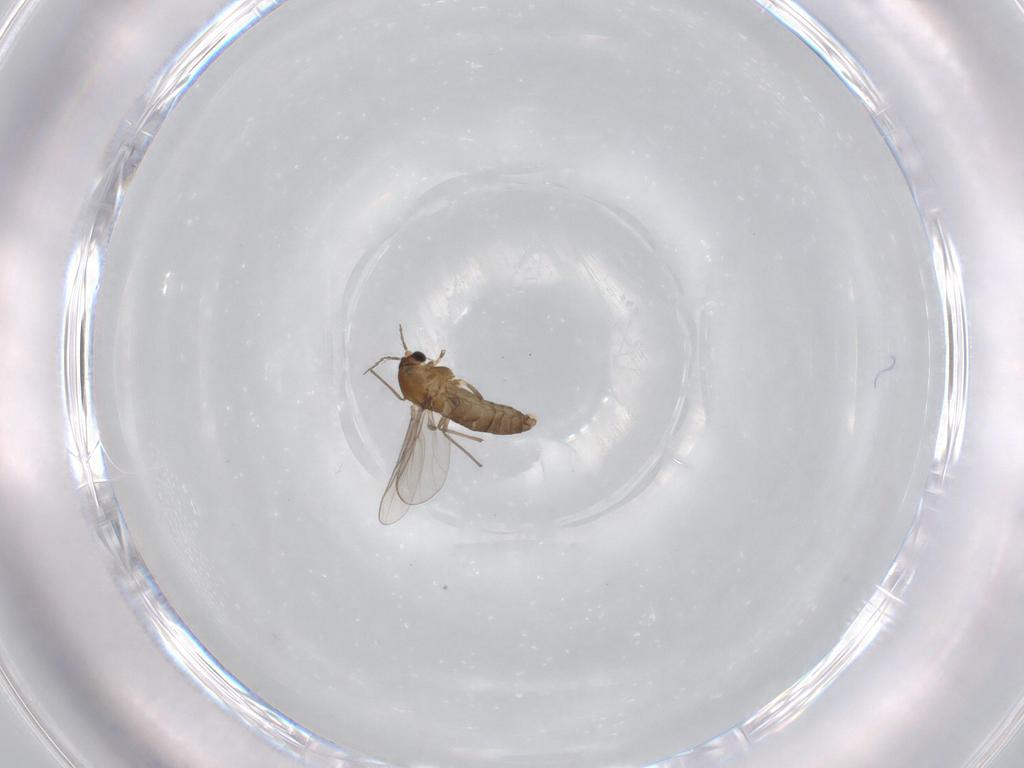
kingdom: Animalia
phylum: Arthropoda
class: Insecta
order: Diptera
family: Chironomidae
